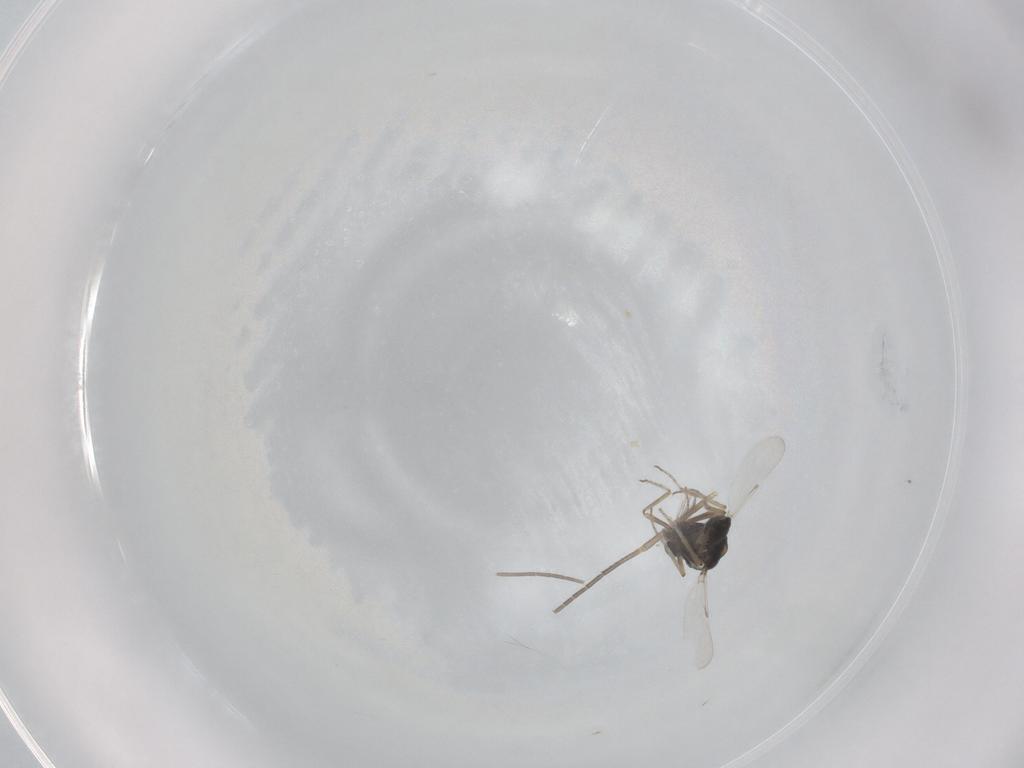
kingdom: Animalia
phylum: Arthropoda
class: Insecta
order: Diptera
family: Ceratopogonidae
